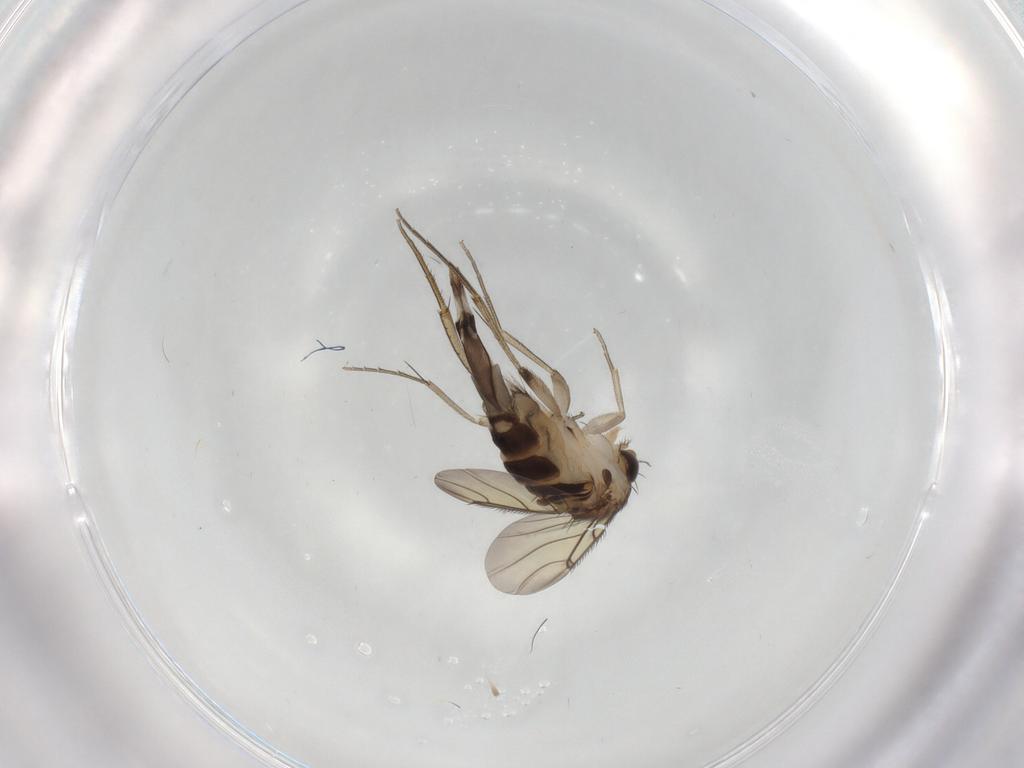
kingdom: Animalia
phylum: Arthropoda
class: Insecta
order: Diptera
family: Phoridae
